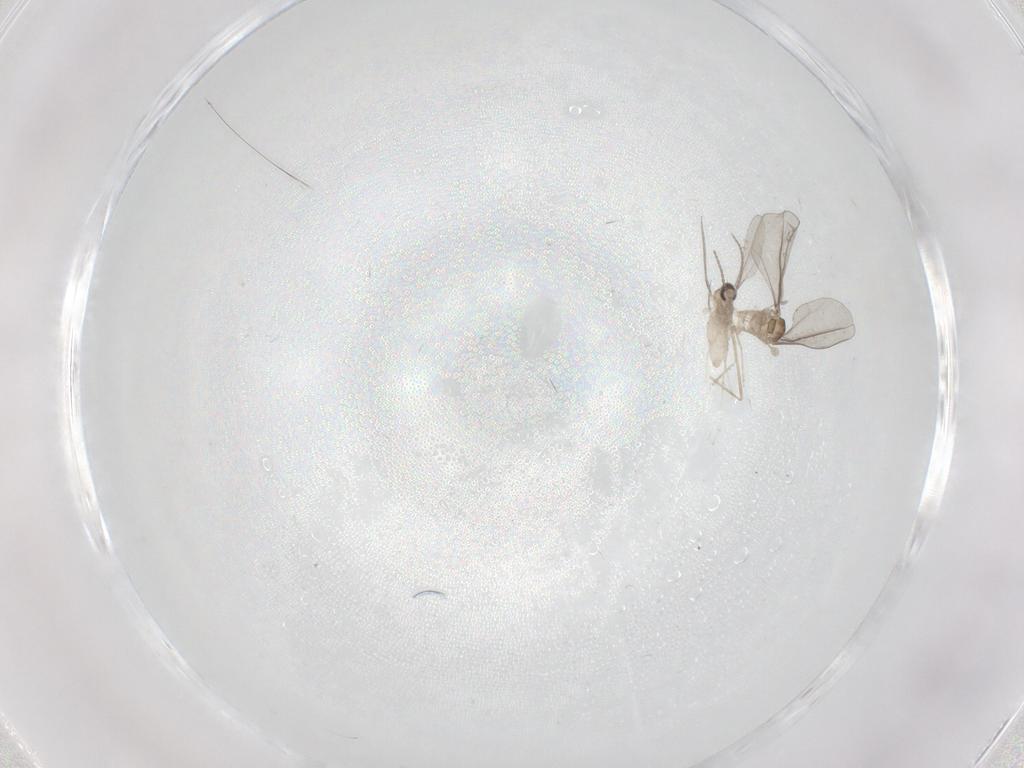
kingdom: Animalia
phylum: Arthropoda
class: Insecta
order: Diptera
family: Cecidomyiidae
